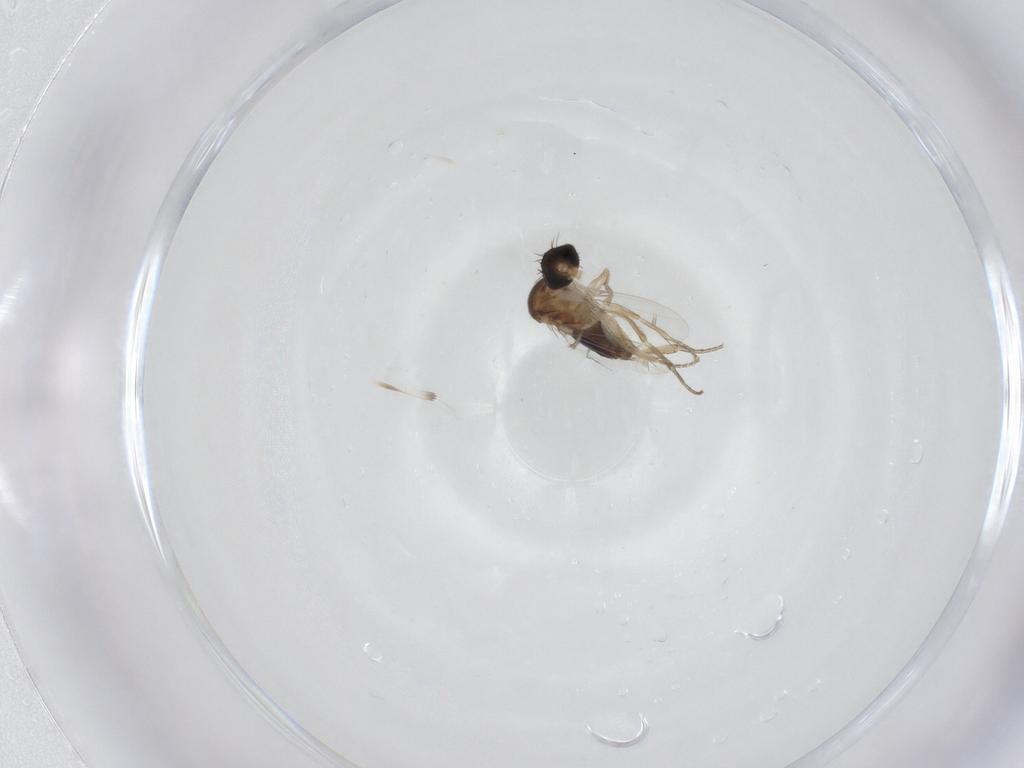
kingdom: Animalia
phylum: Arthropoda
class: Insecta
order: Diptera
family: Phoridae
